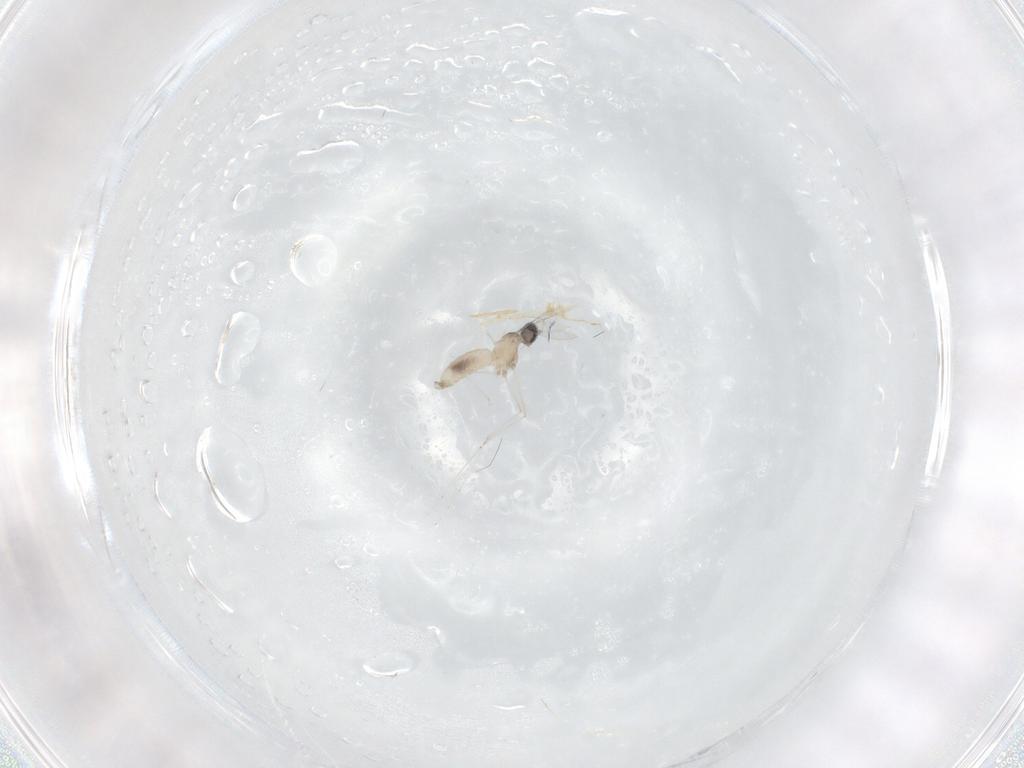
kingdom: Animalia
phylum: Arthropoda
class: Insecta
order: Diptera
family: Cecidomyiidae
